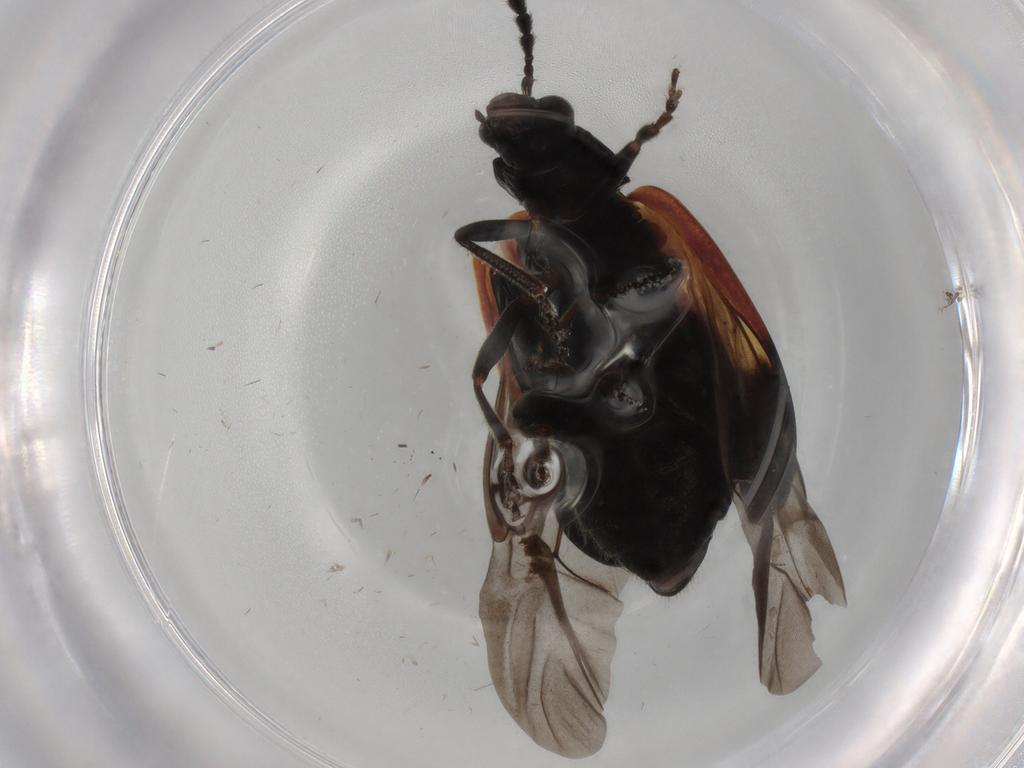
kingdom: Animalia
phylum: Arthropoda
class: Insecta
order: Coleoptera
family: Chrysomelidae
